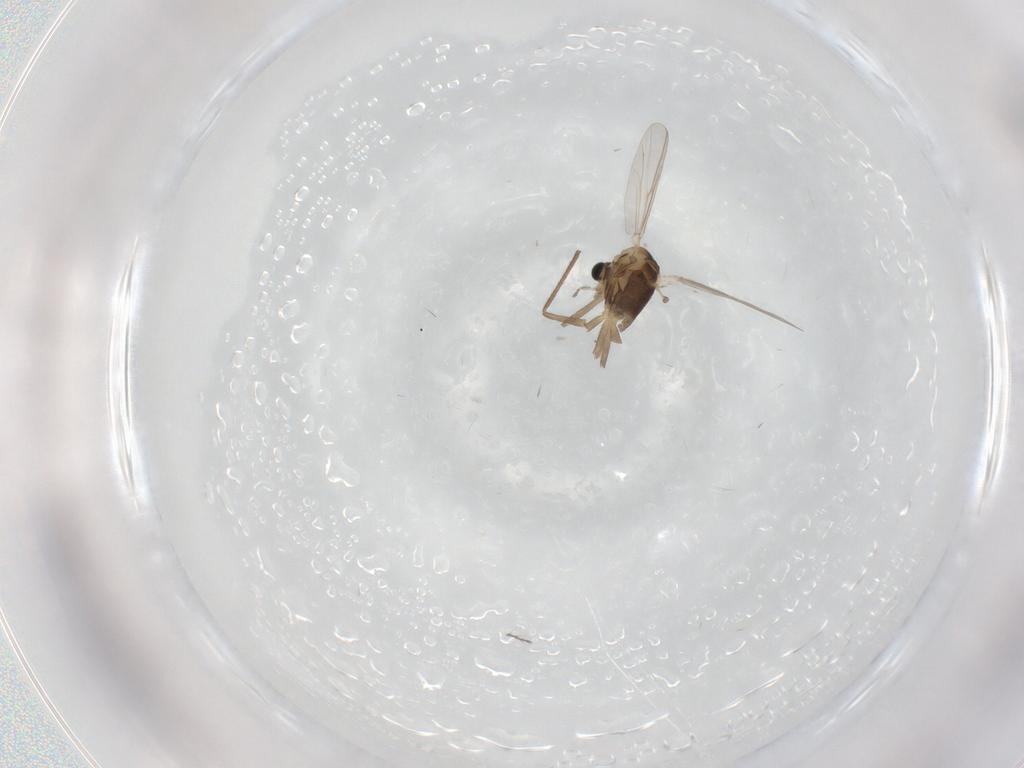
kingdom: Animalia
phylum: Arthropoda
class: Insecta
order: Diptera
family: Chironomidae
